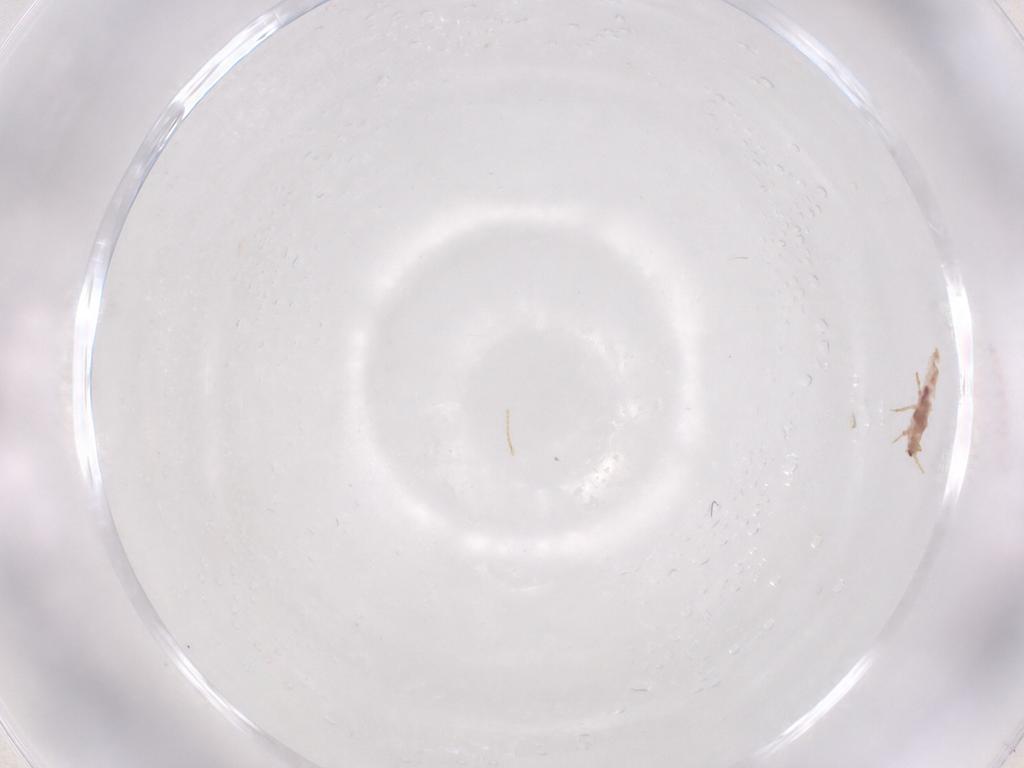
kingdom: Animalia
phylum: Arthropoda
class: Insecta
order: Hemiptera
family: Pseudococcidae
